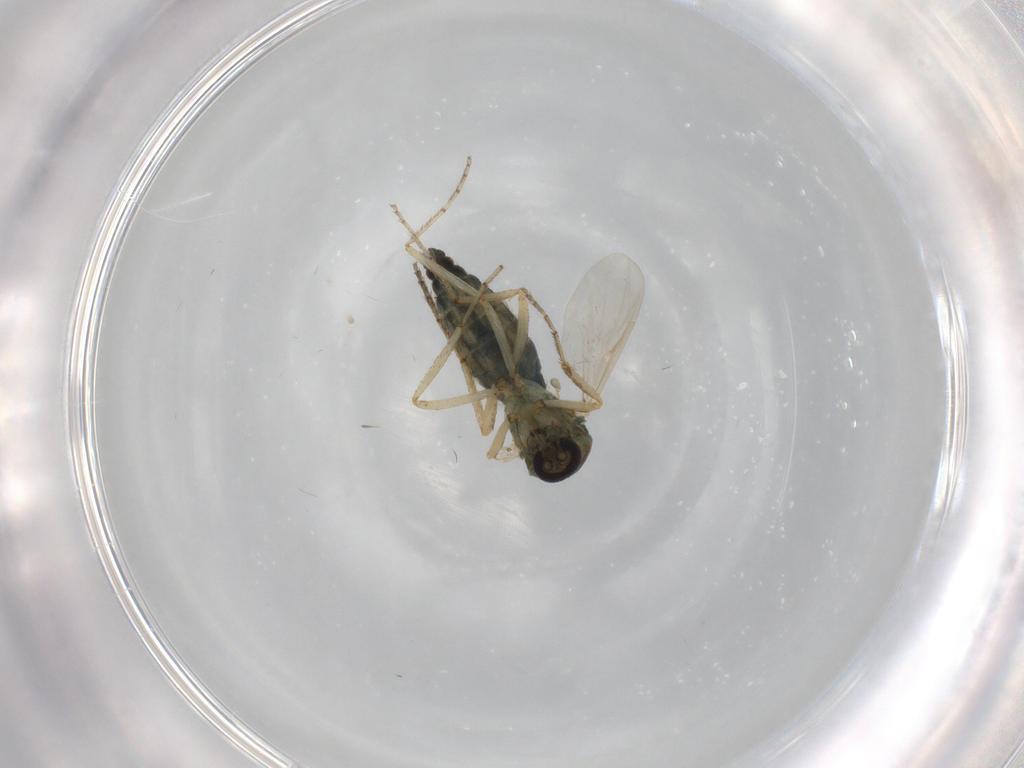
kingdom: Animalia
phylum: Arthropoda
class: Insecta
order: Diptera
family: Ceratopogonidae
